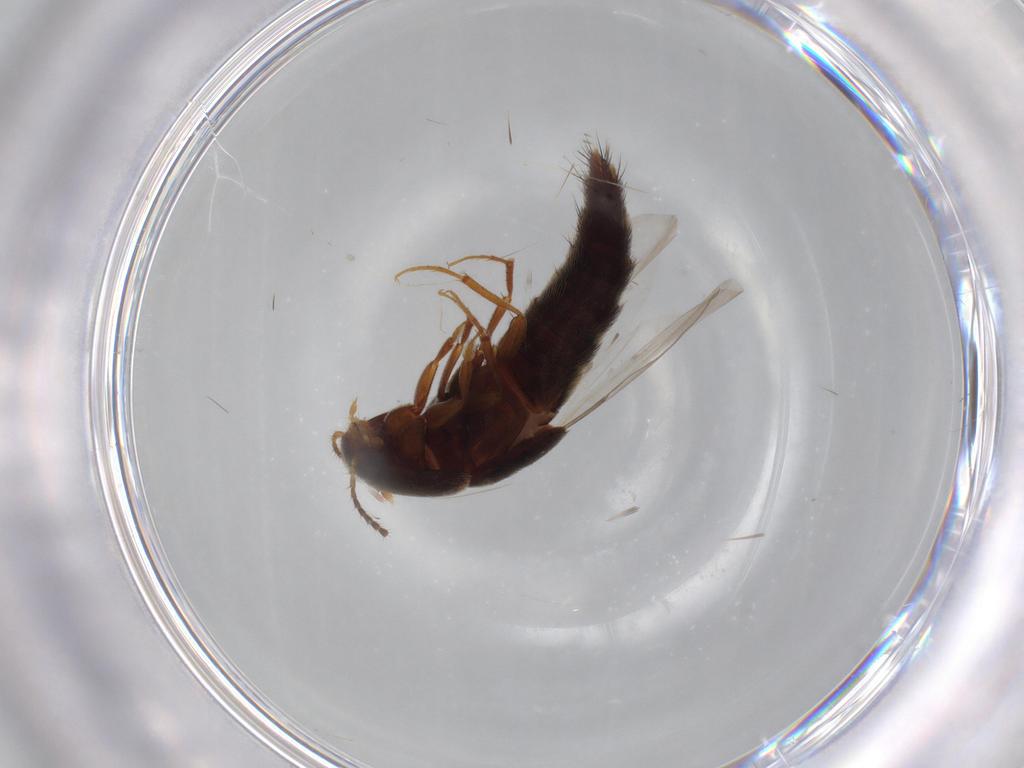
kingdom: Animalia
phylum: Arthropoda
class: Insecta
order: Coleoptera
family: Staphylinidae
